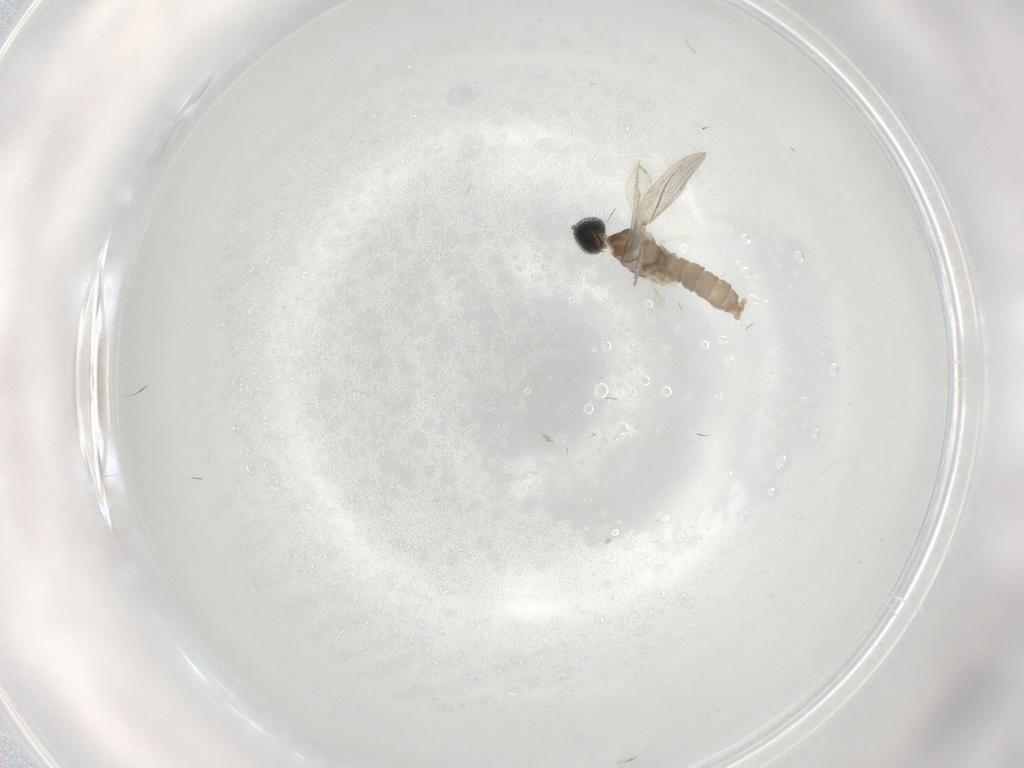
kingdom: Animalia
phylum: Arthropoda
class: Insecta
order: Diptera
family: Cecidomyiidae
